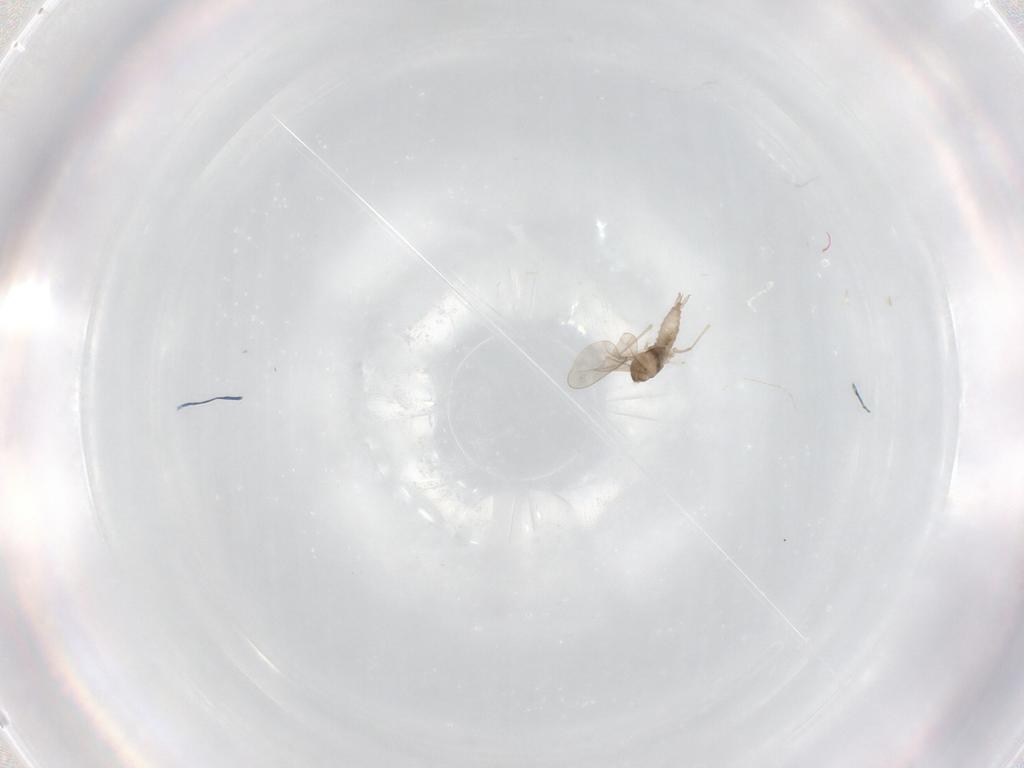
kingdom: Animalia
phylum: Arthropoda
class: Insecta
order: Diptera
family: Cecidomyiidae
